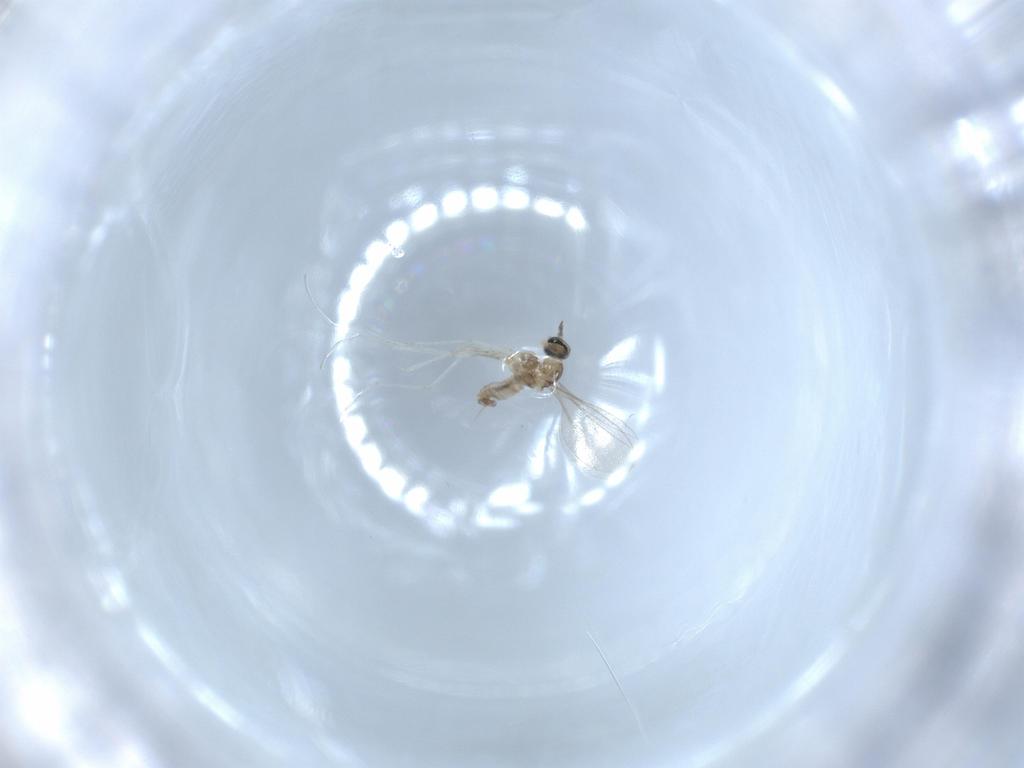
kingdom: Animalia
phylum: Arthropoda
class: Insecta
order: Diptera
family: Cecidomyiidae
